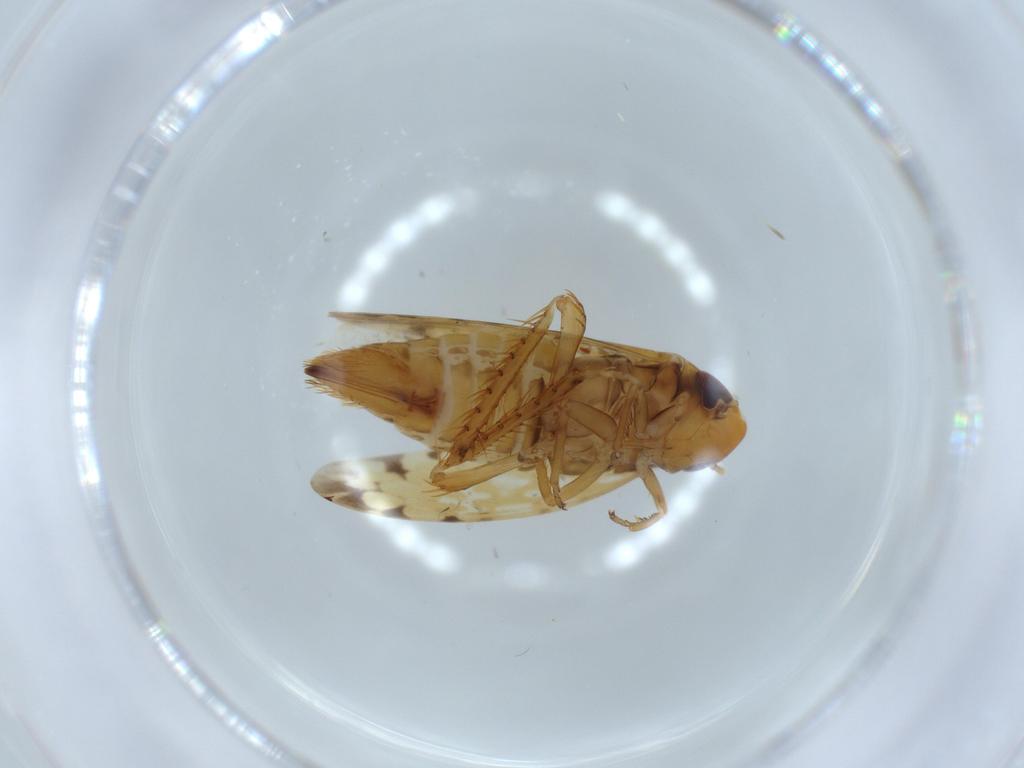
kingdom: Animalia
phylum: Arthropoda
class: Insecta
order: Hemiptera
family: Cicadellidae
